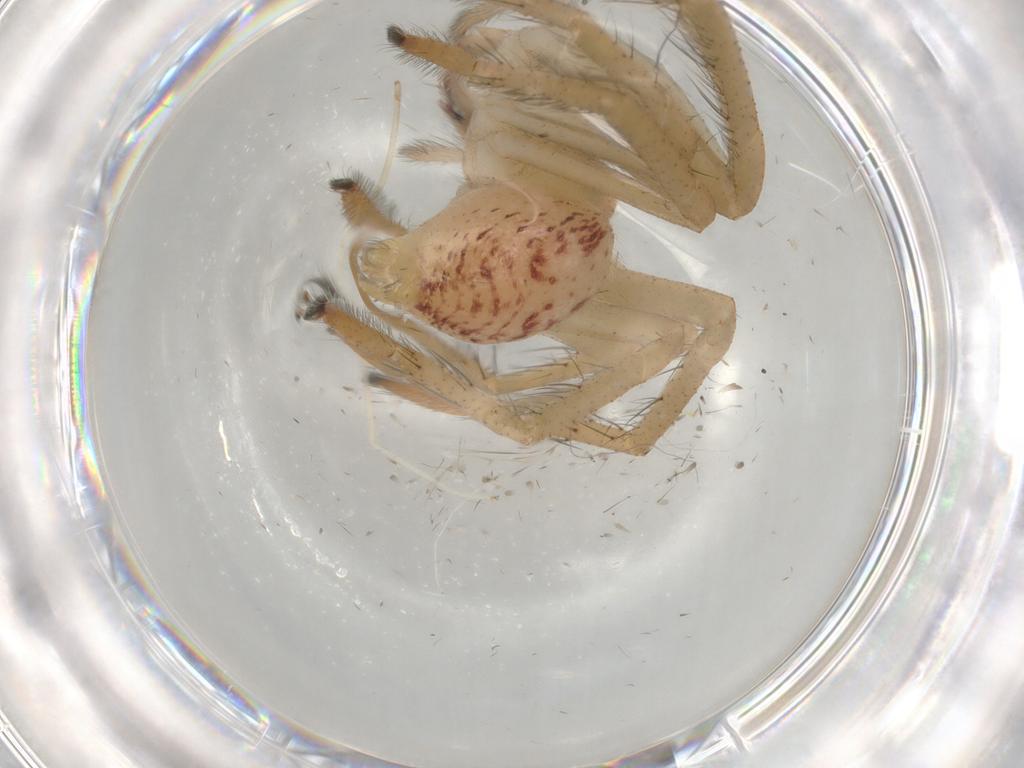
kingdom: Animalia
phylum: Arthropoda
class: Arachnida
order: Araneae
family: Sparassidae
